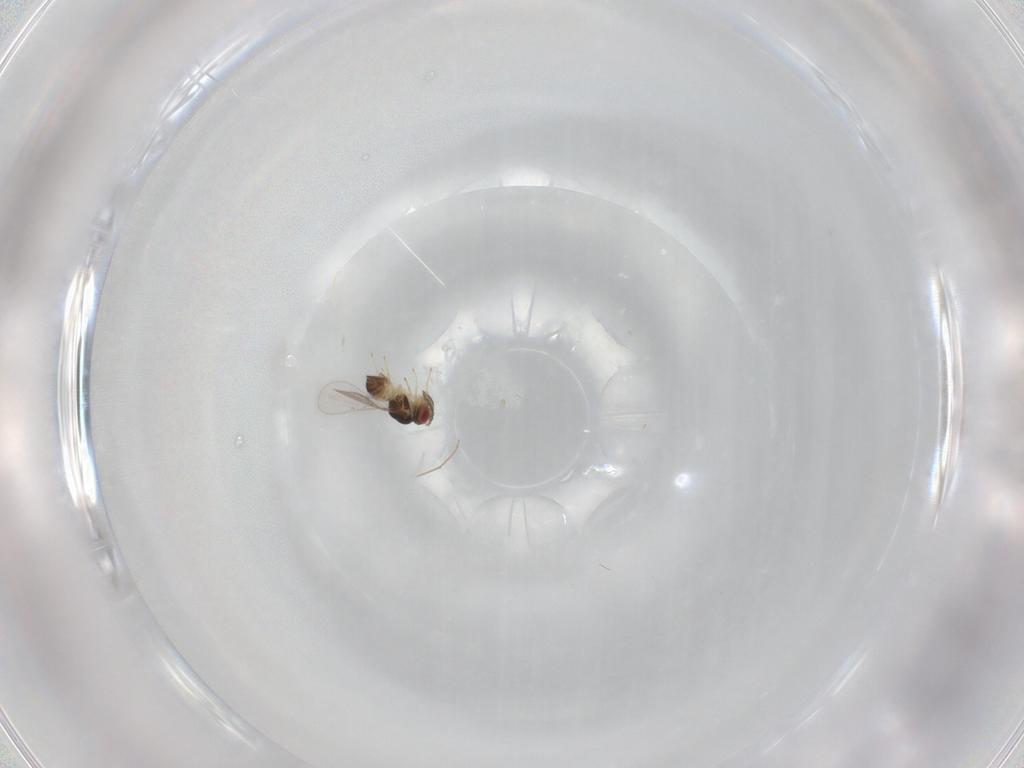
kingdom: Animalia
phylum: Arthropoda
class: Insecta
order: Hymenoptera
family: Eulophidae
